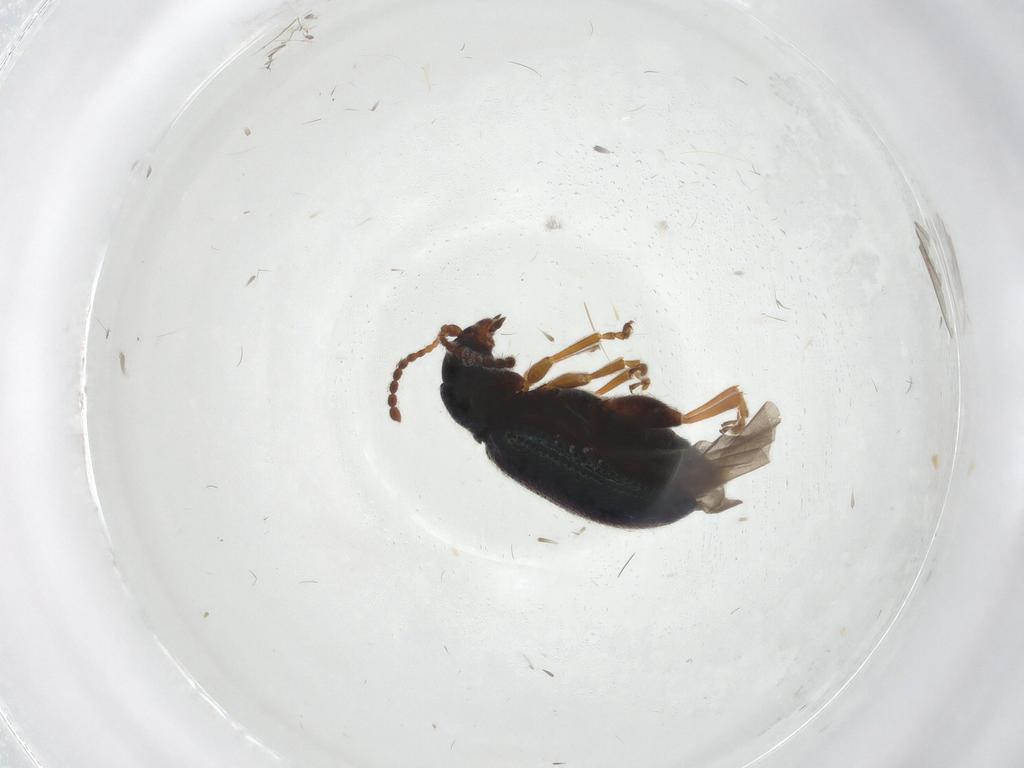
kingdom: Animalia
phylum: Arthropoda
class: Insecta
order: Coleoptera
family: Chrysomelidae
